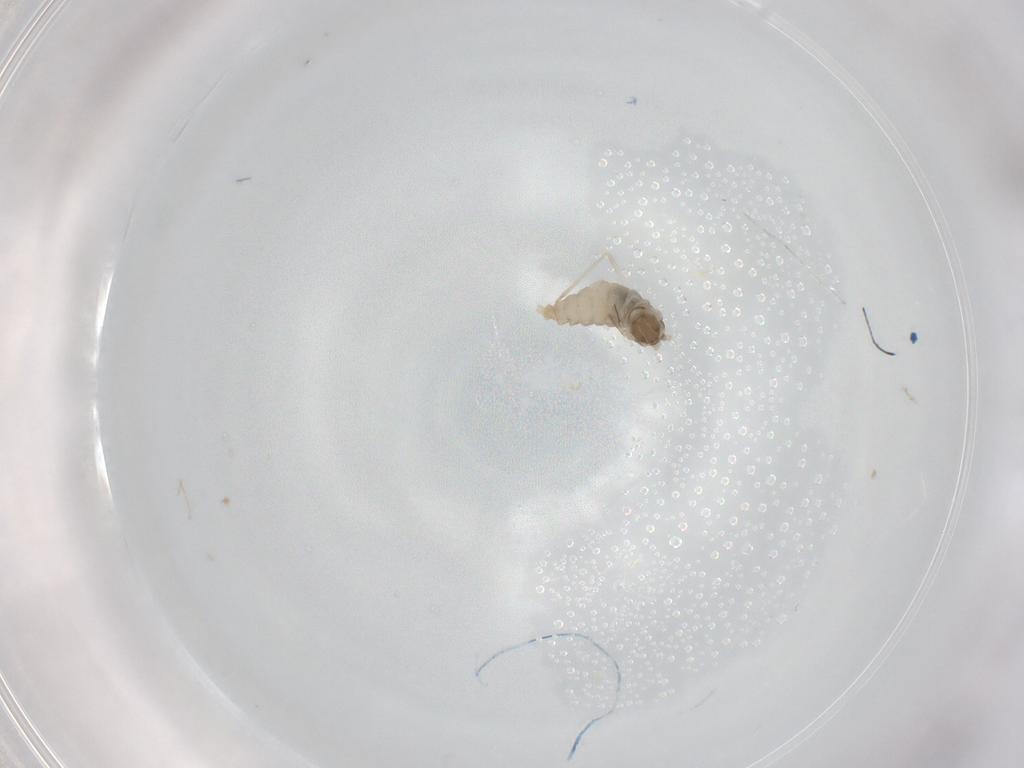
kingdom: Animalia
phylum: Arthropoda
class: Insecta
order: Diptera
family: Cecidomyiidae
